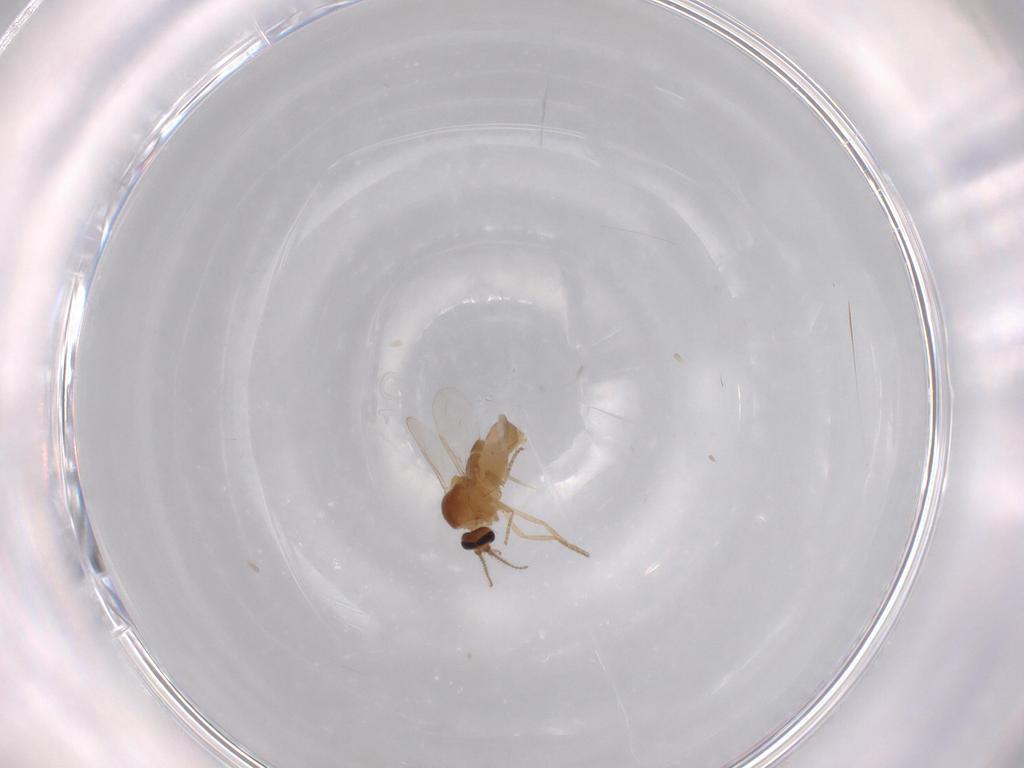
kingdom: Animalia
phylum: Arthropoda
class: Insecta
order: Diptera
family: Ceratopogonidae
